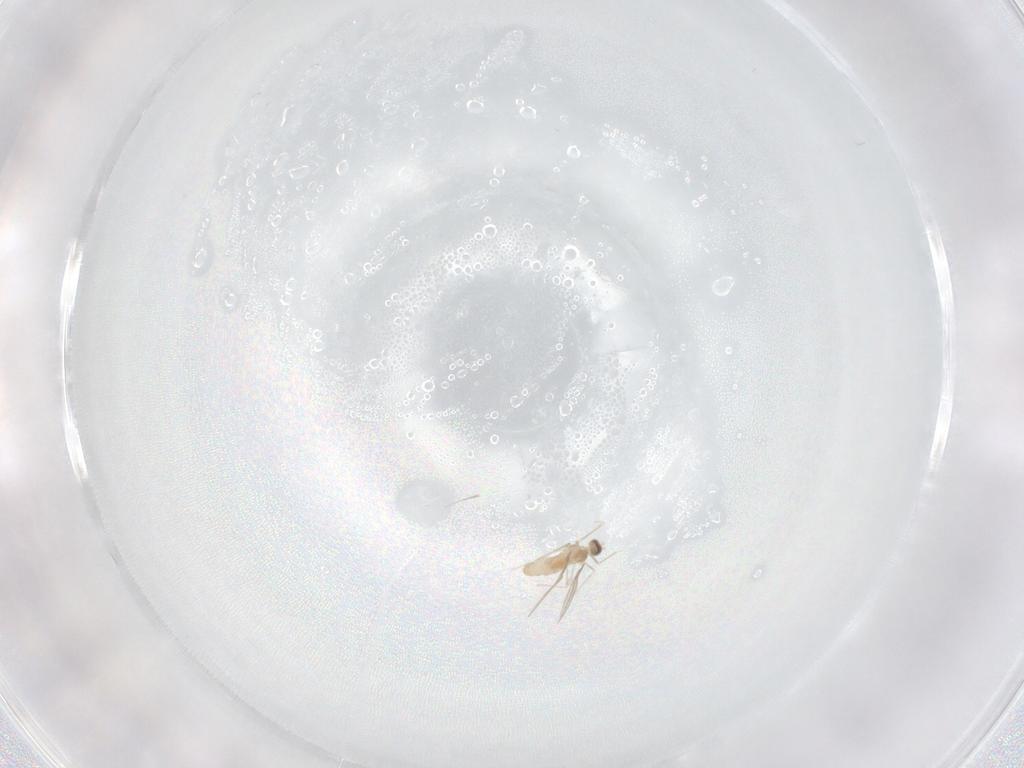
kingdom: Animalia
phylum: Arthropoda
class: Insecta
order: Diptera
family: Cecidomyiidae
